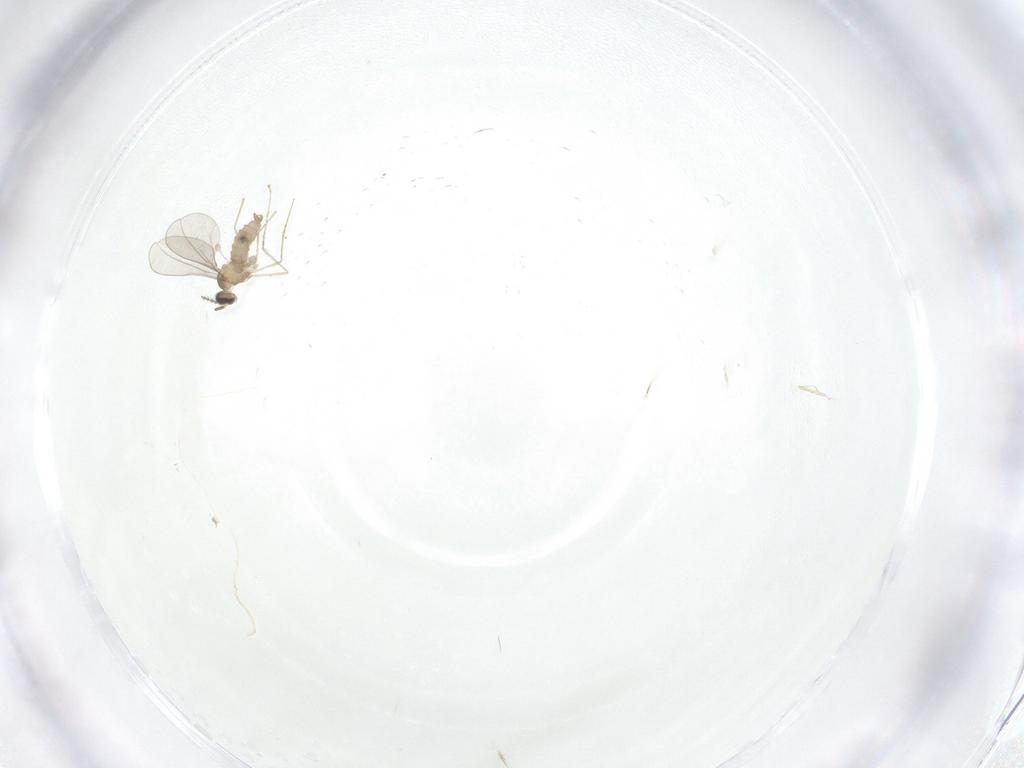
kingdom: Animalia
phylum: Arthropoda
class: Insecta
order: Diptera
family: Cecidomyiidae
